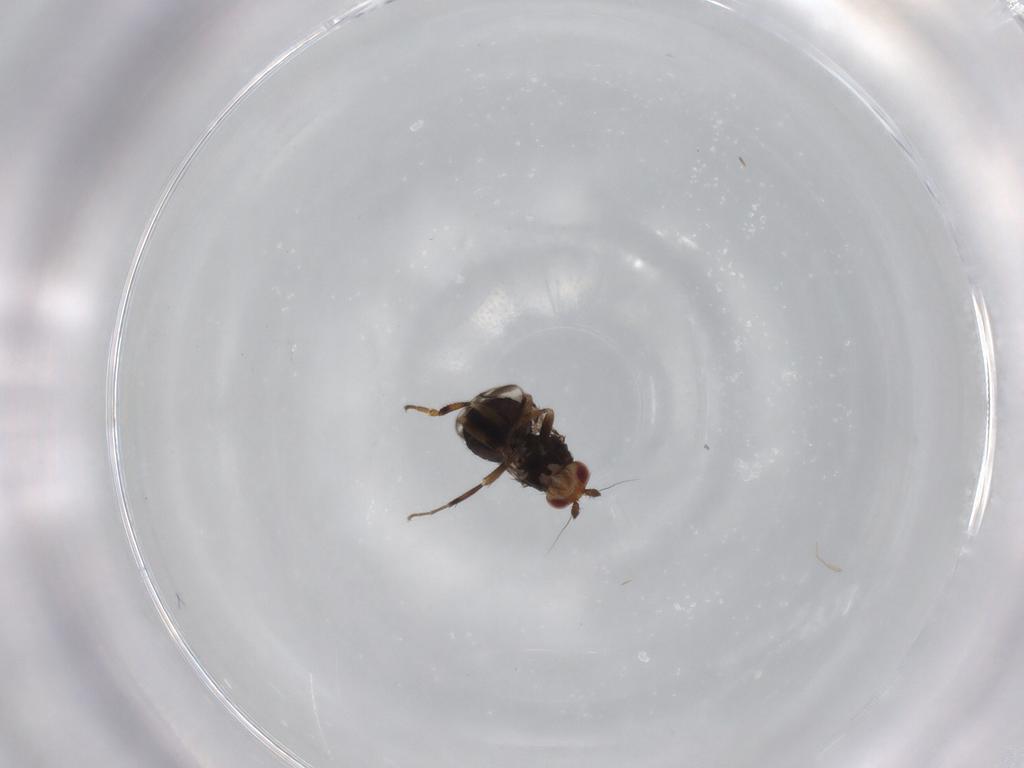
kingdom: Animalia
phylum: Arthropoda
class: Insecta
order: Diptera
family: Sphaeroceridae
